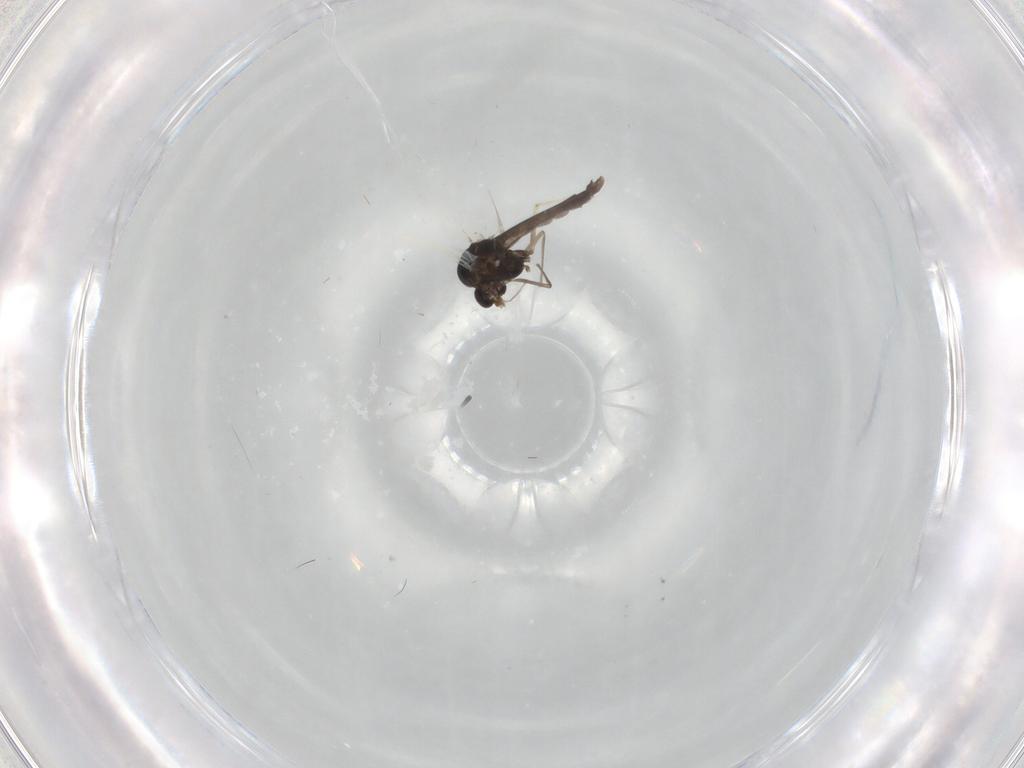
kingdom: Animalia
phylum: Arthropoda
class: Insecta
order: Diptera
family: Chironomidae
